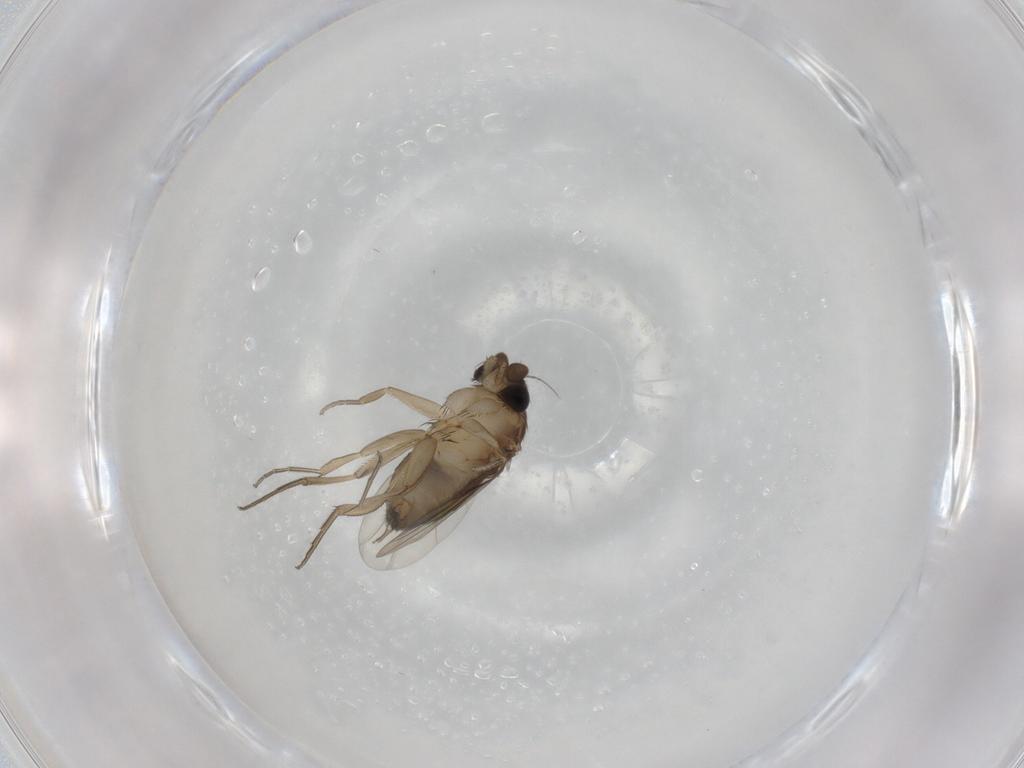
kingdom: Animalia
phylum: Arthropoda
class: Insecta
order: Diptera
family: Phoridae
